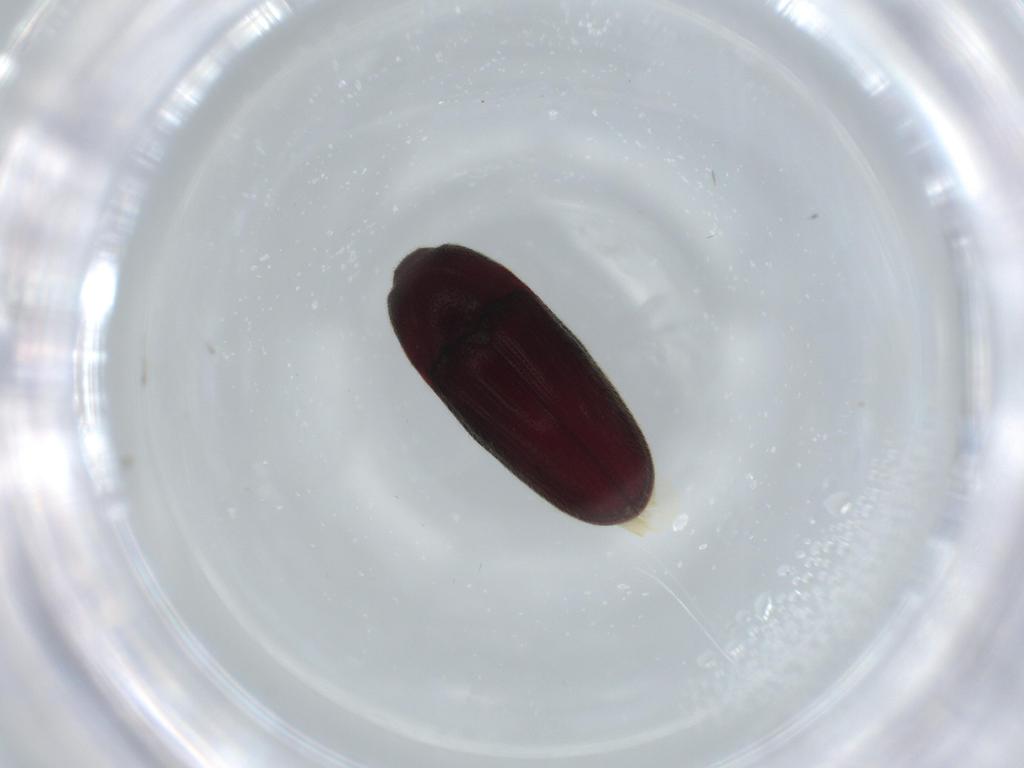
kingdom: Animalia
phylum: Arthropoda
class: Insecta
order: Coleoptera
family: Throscidae
